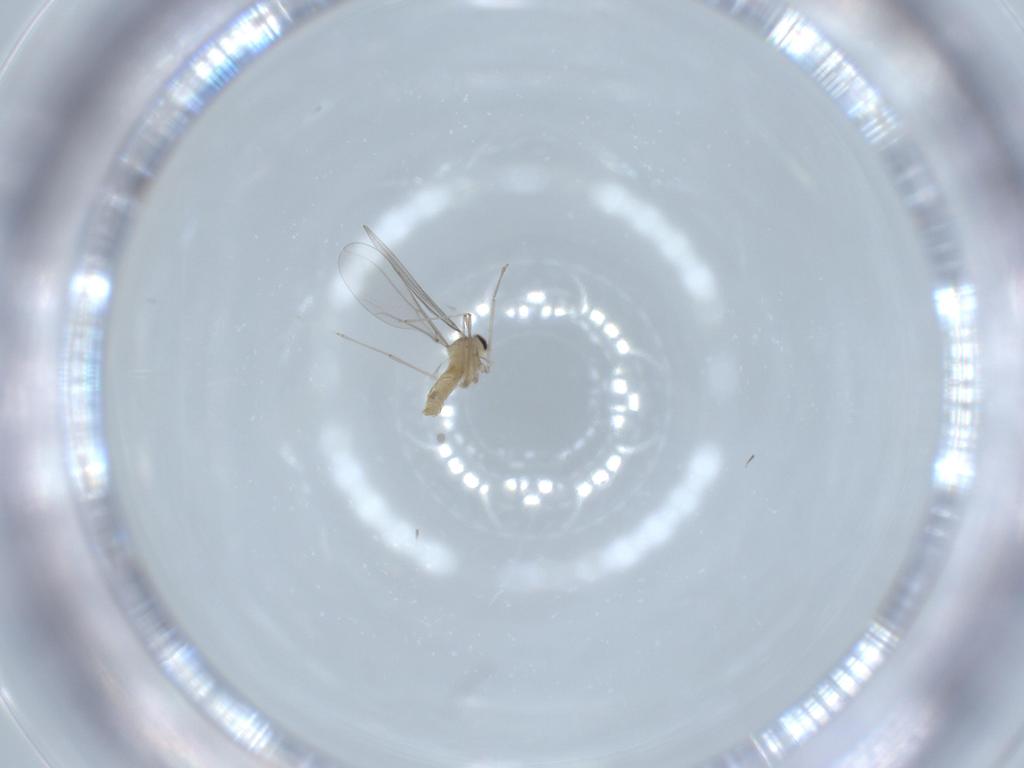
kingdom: Animalia
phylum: Arthropoda
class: Insecta
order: Diptera
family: Cecidomyiidae
